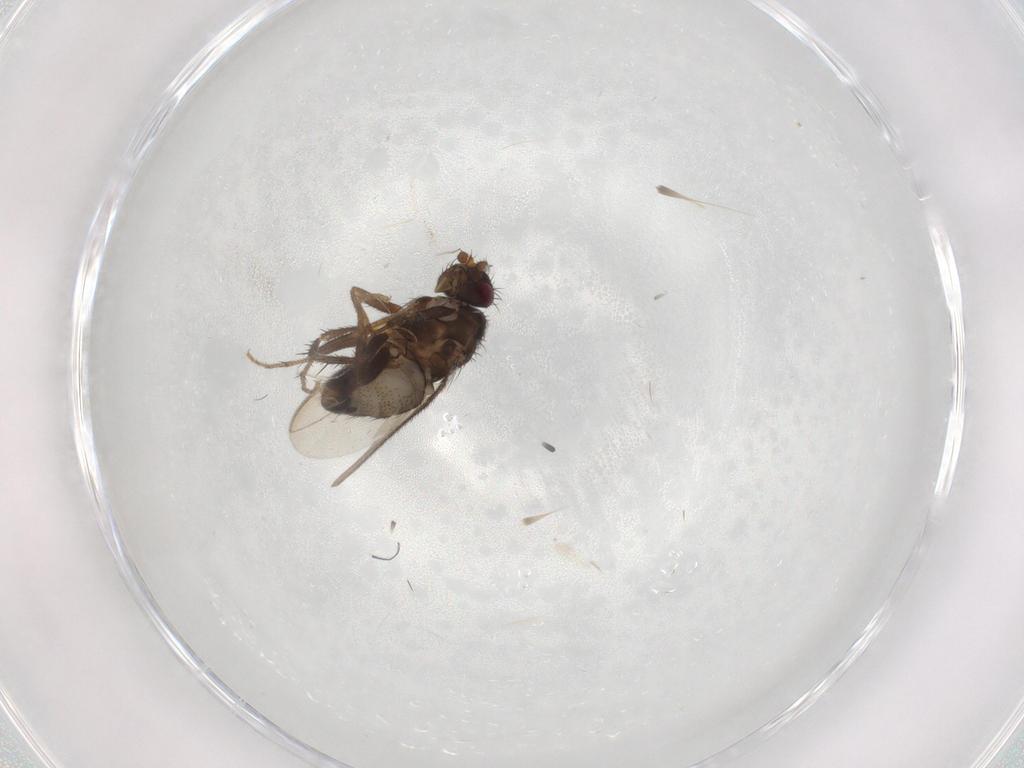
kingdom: Animalia
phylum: Arthropoda
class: Insecta
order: Diptera
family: Sphaeroceridae
